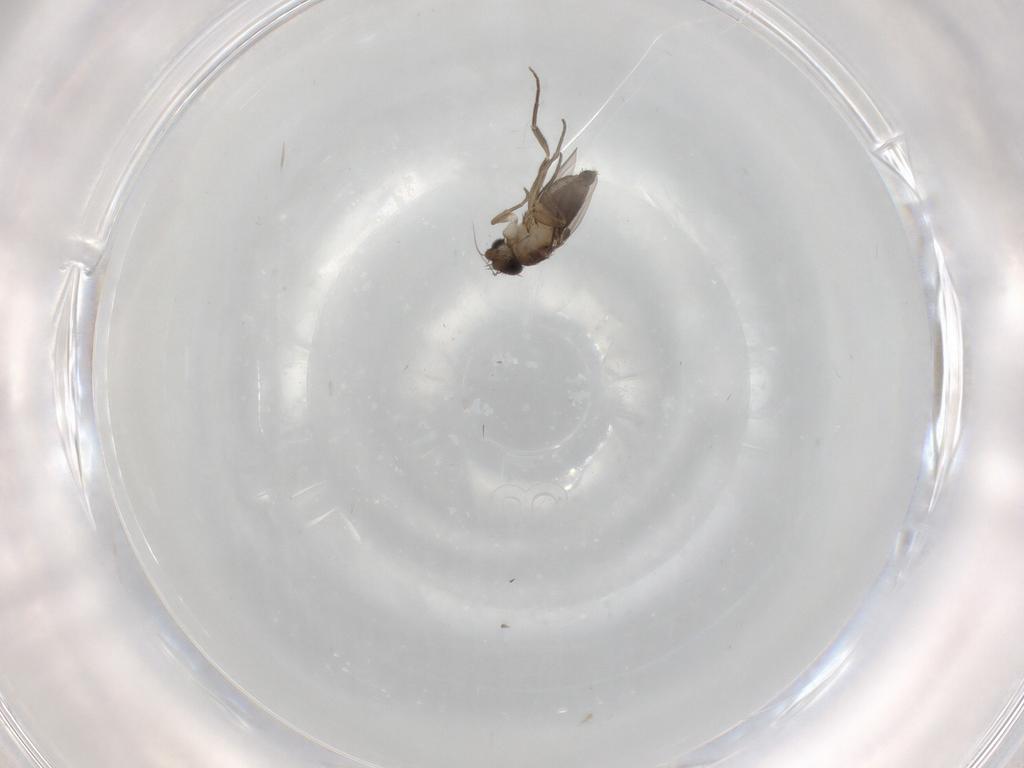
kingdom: Animalia
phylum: Arthropoda
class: Insecta
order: Diptera
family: Phoridae
